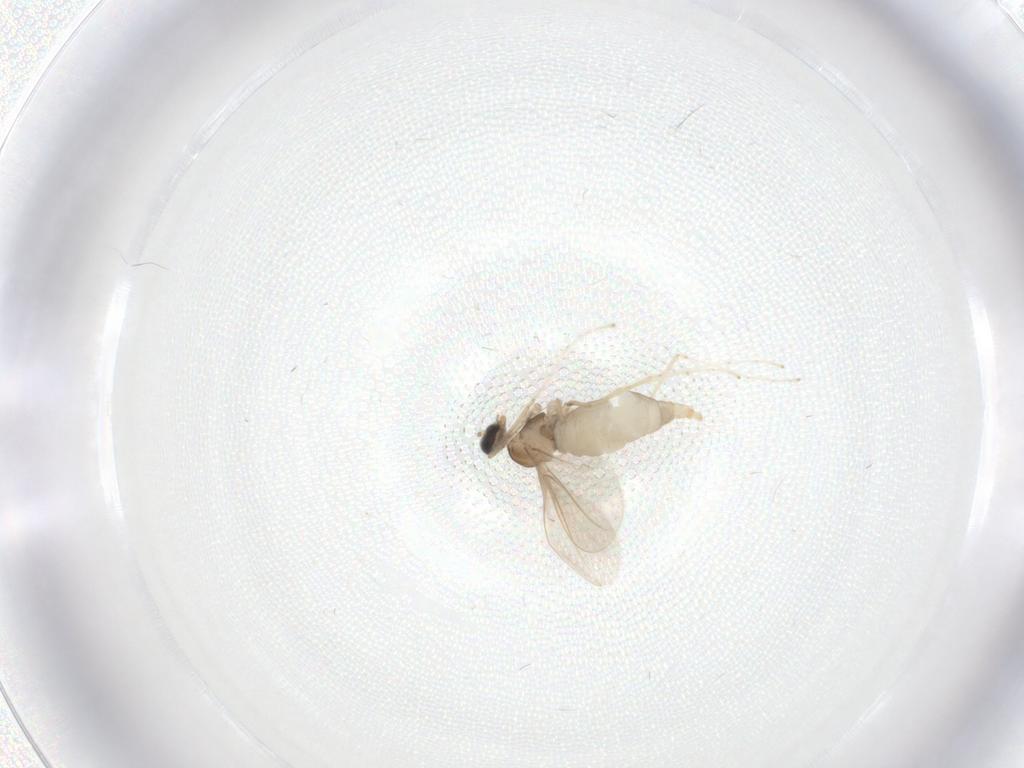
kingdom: Animalia
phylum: Arthropoda
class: Insecta
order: Diptera
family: Cecidomyiidae
